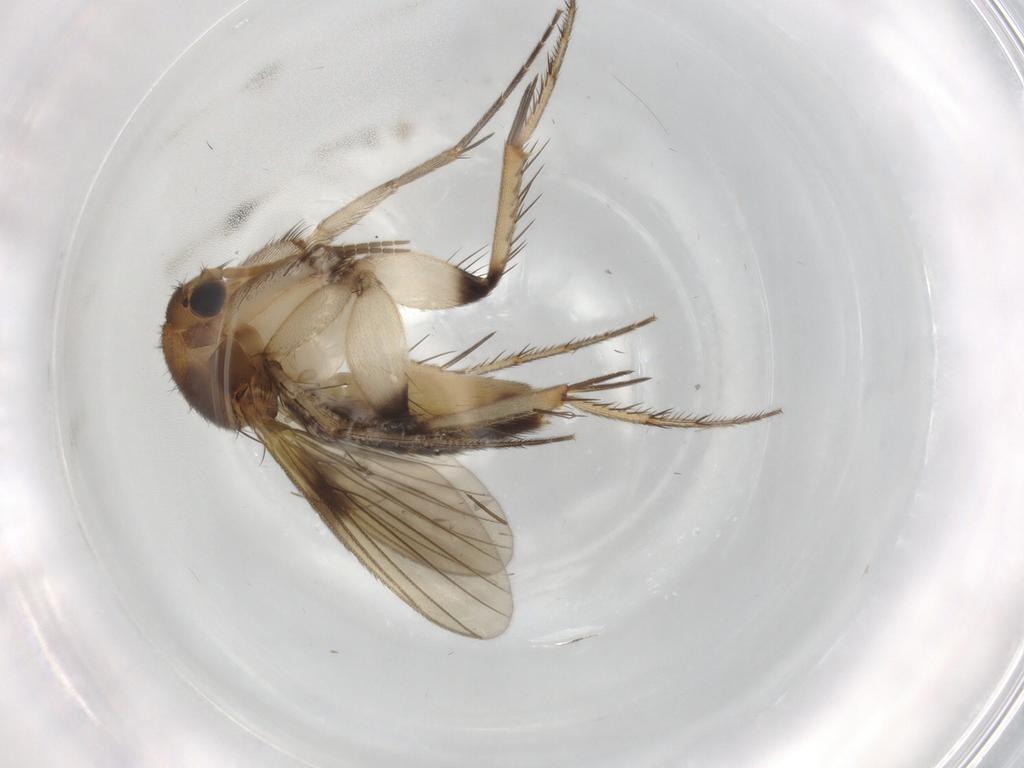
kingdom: Animalia
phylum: Arthropoda
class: Insecta
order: Diptera
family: Mycetophilidae
